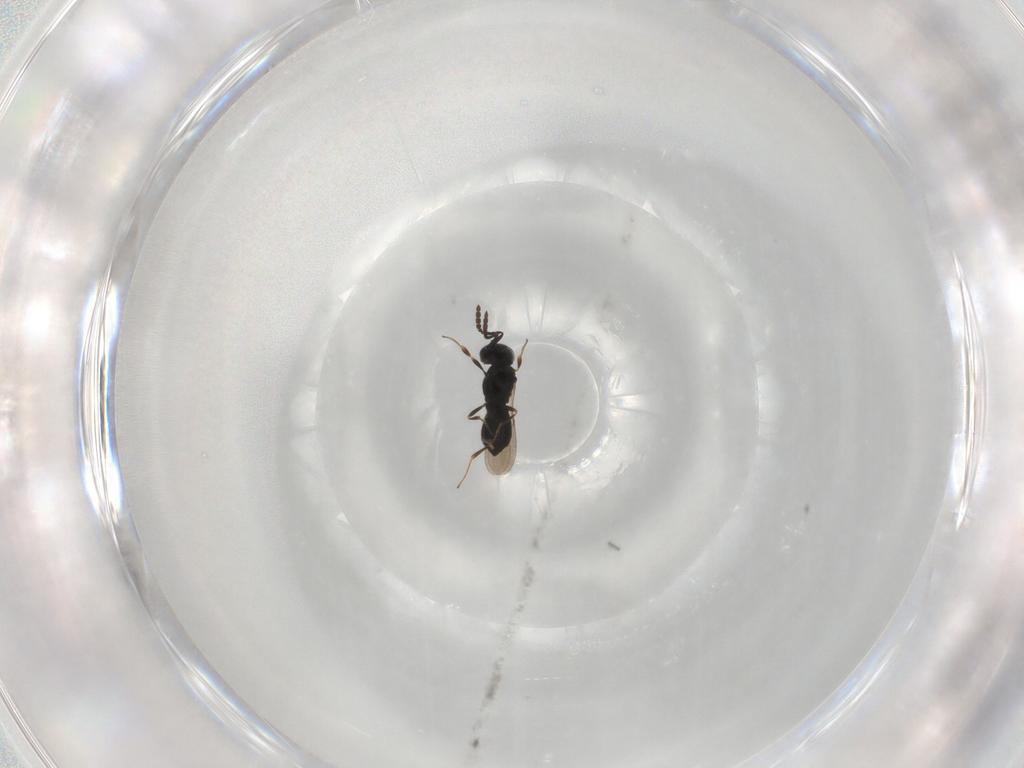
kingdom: Animalia
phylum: Arthropoda
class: Insecta
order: Hymenoptera
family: Scelionidae
